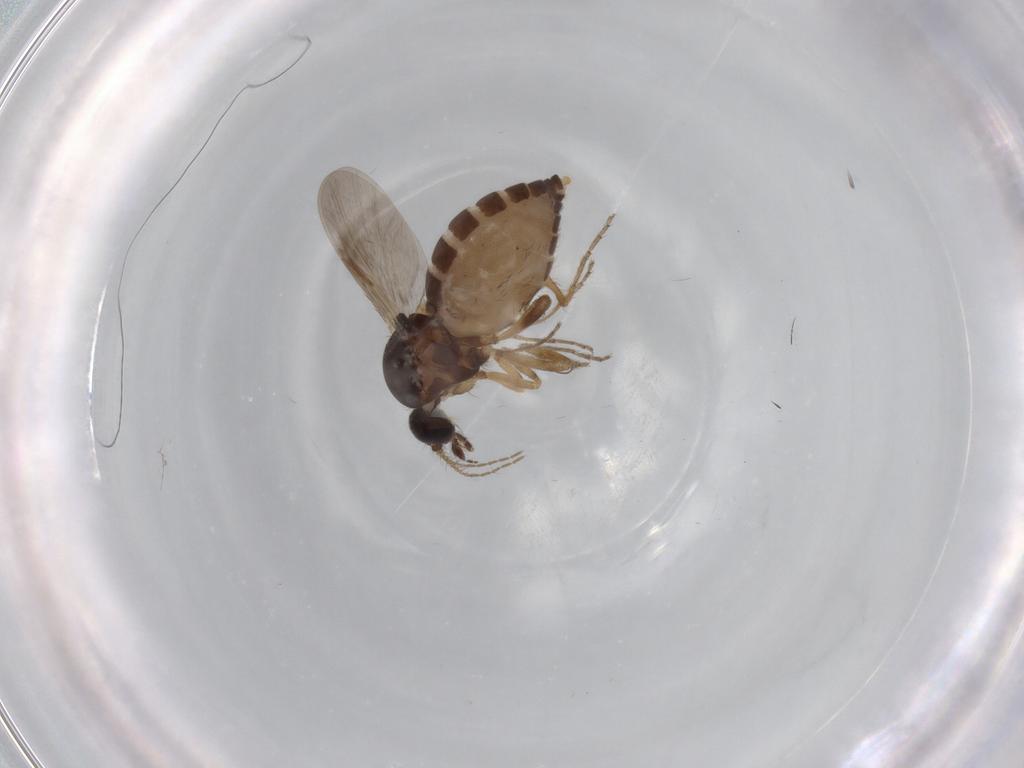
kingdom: Animalia
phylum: Arthropoda
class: Insecta
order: Diptera
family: Ceratopogonidae
